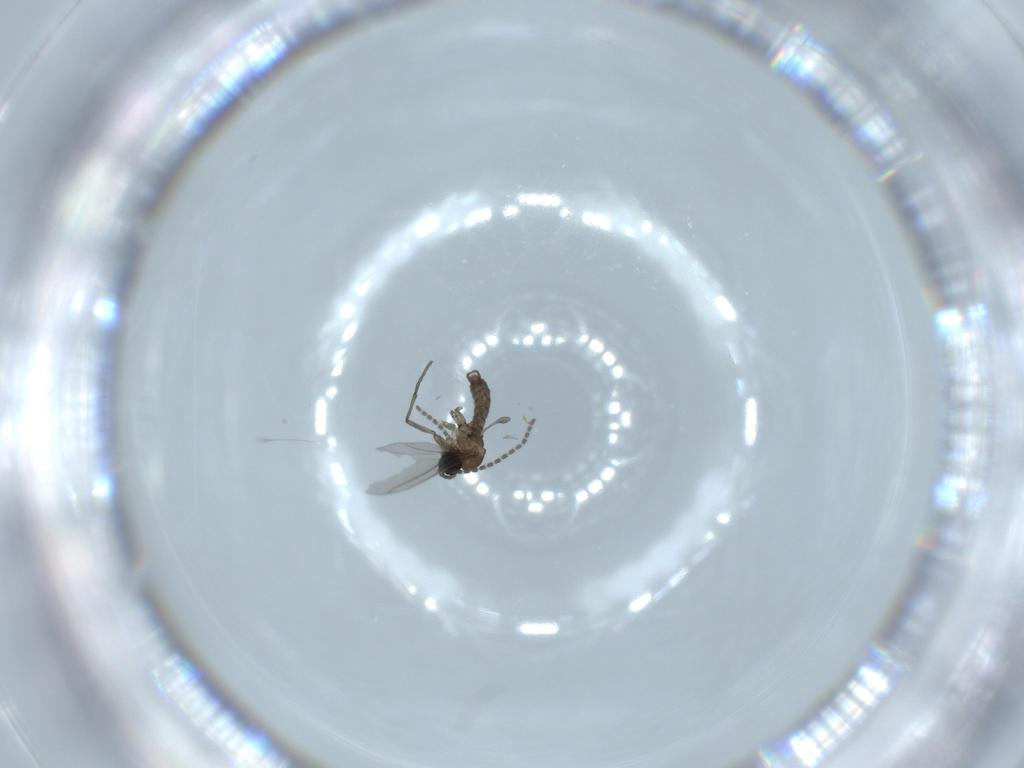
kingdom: Animalia
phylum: Arthropoda
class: Insecta
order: Diptera
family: Sciaridae
